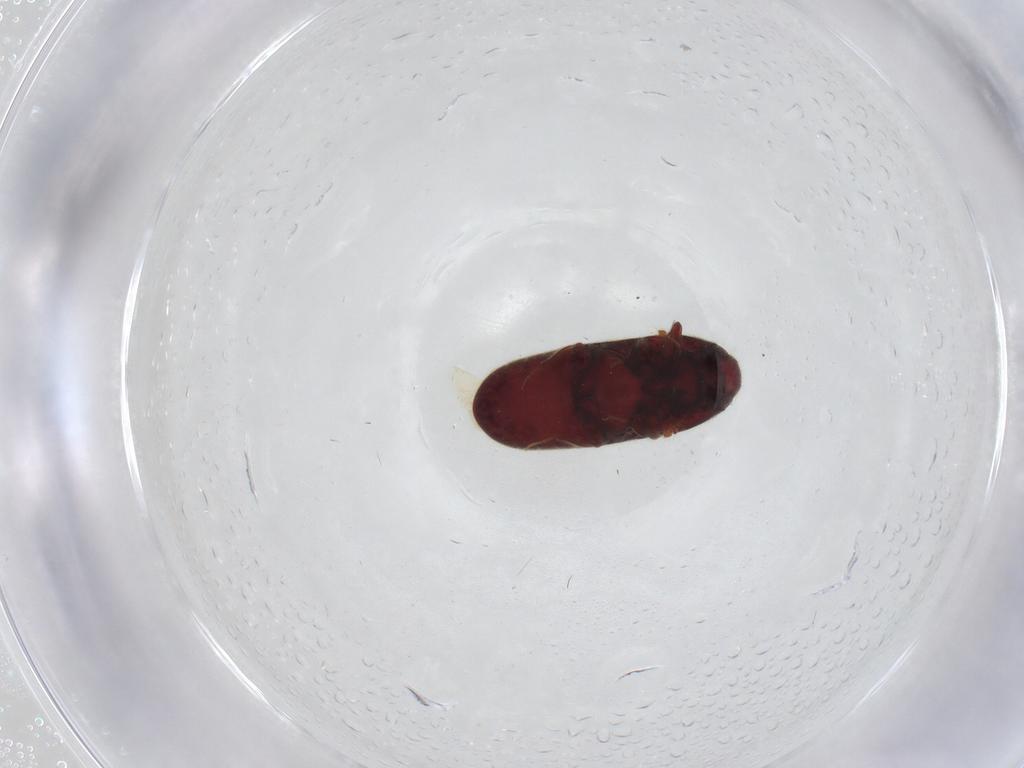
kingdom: Animalia
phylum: Arthropoda
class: Insecta
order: Coleoptera
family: Throscidae
